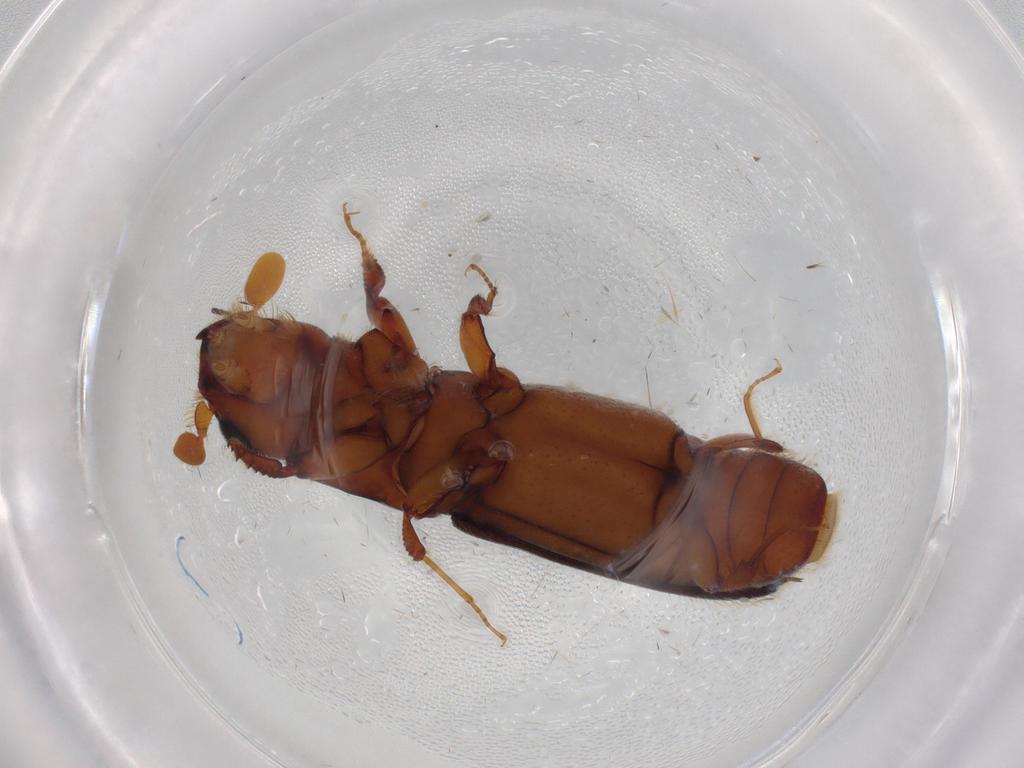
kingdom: Animalia
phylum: Arthropoda
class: Insecta
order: Coleoptera
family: Curculionidae
